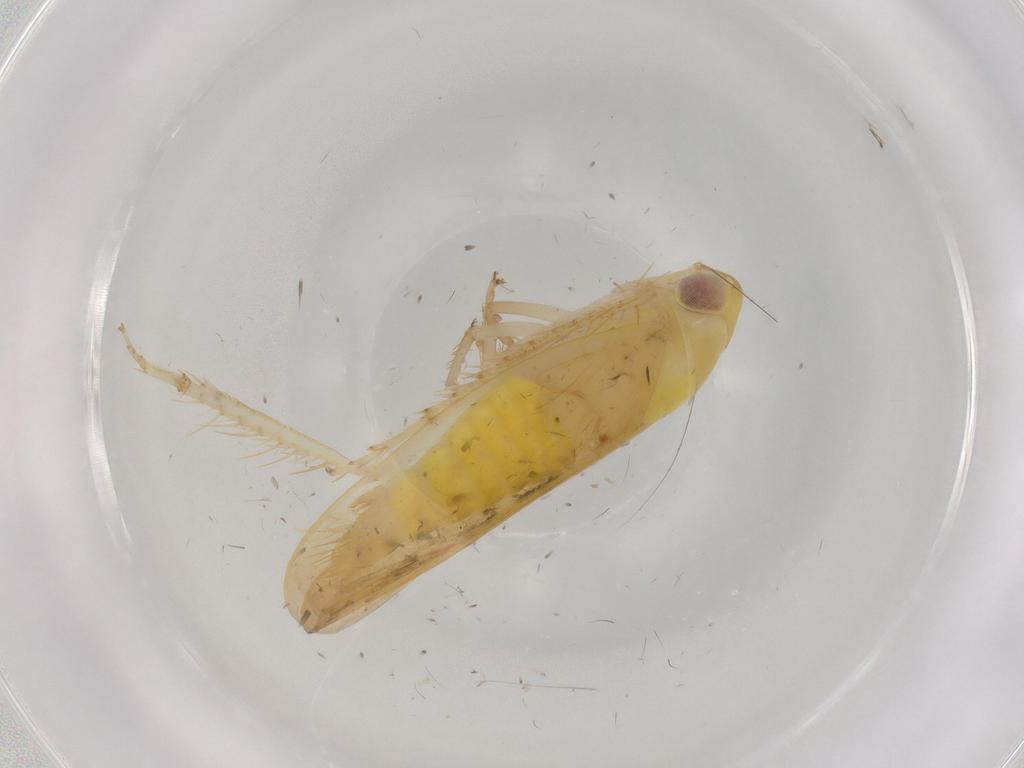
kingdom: Animalia
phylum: Arthropoda
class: Insecta
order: Hemiptera
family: Cicadellidae
